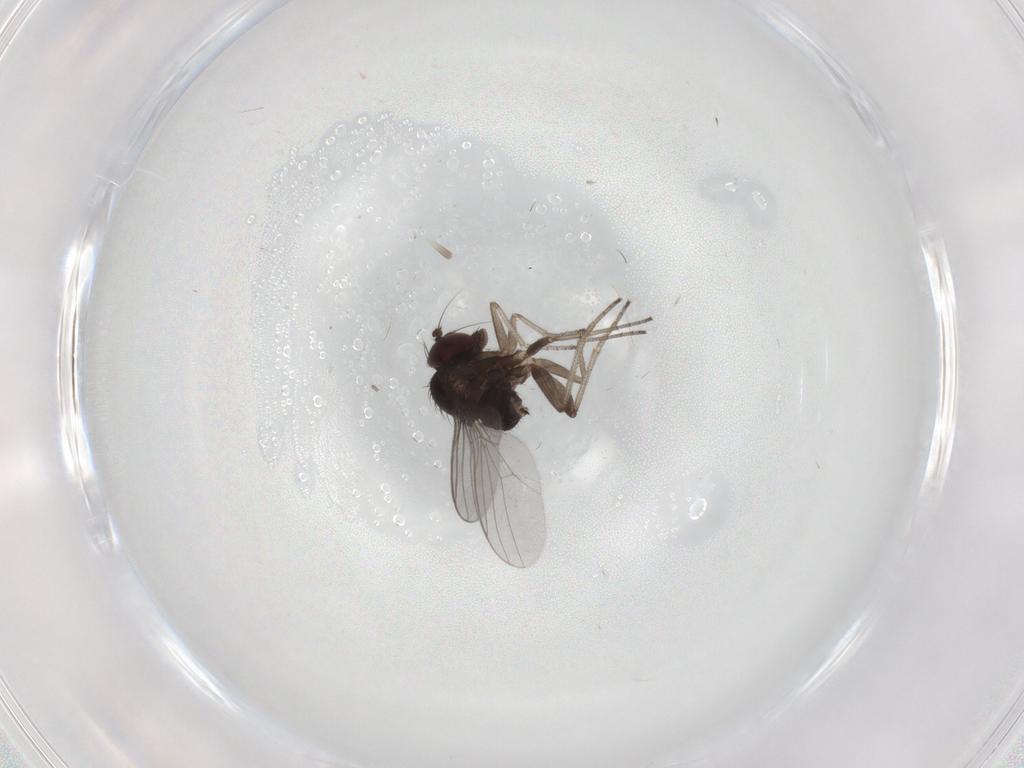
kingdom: Animalia
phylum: Arthropoda
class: Insecta
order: Diptera
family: Dolichopodidae
